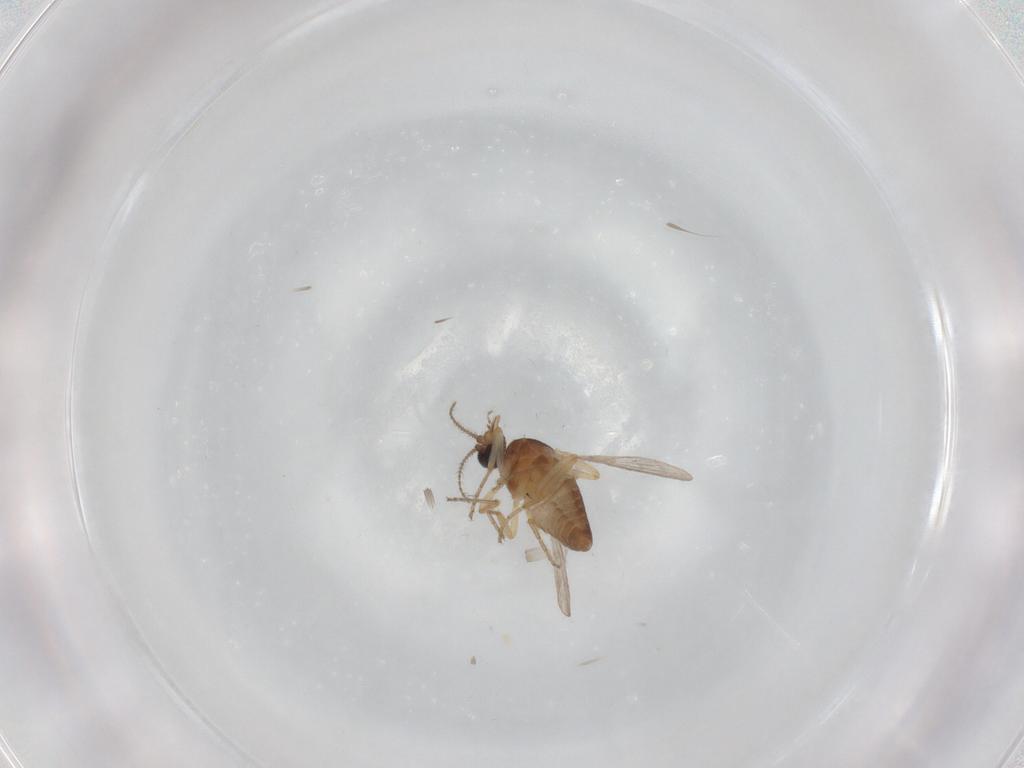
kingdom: Animalia
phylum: Arthropoda
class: Insecta
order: Diptera
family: Ceratopogonidae
